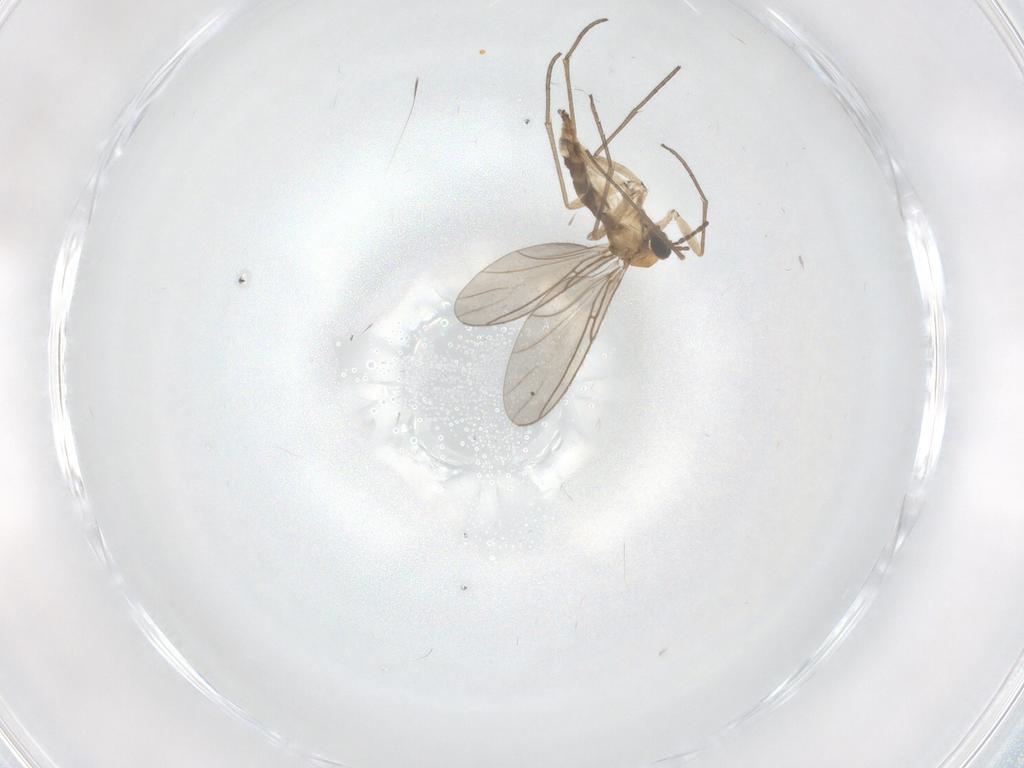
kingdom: Animalia
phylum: Arthropoda
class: Insecta
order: Diptera
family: Sciaridae
